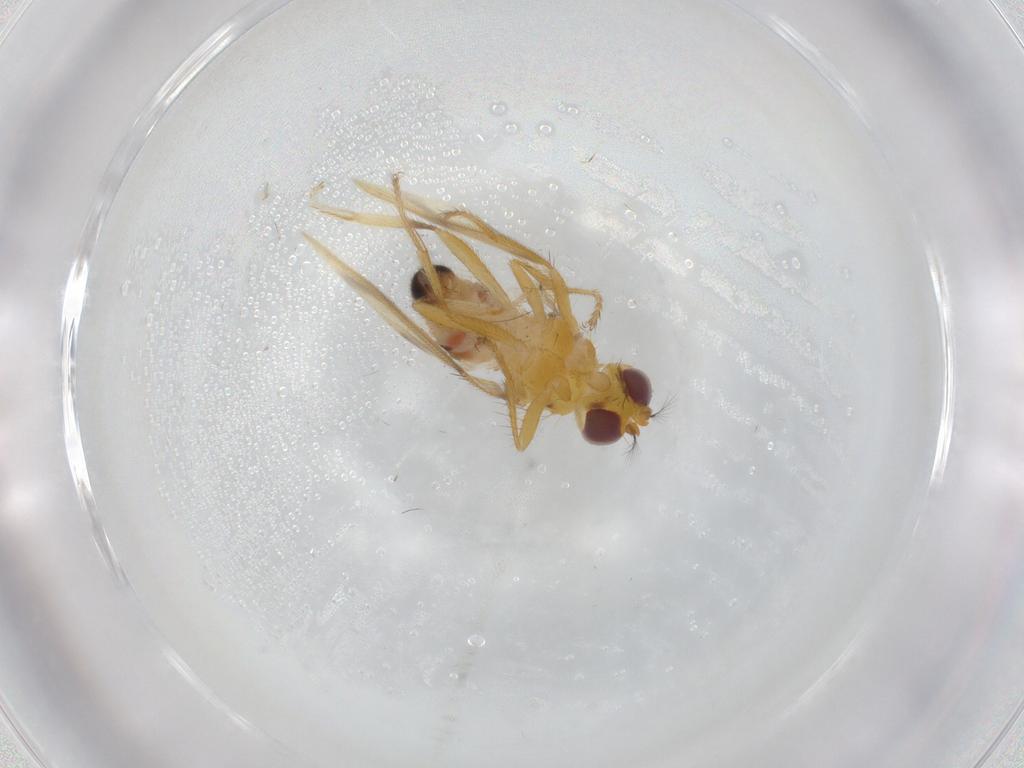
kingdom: Animalia
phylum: Arthropoda
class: Insecta
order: Diptera
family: Periscelididae
